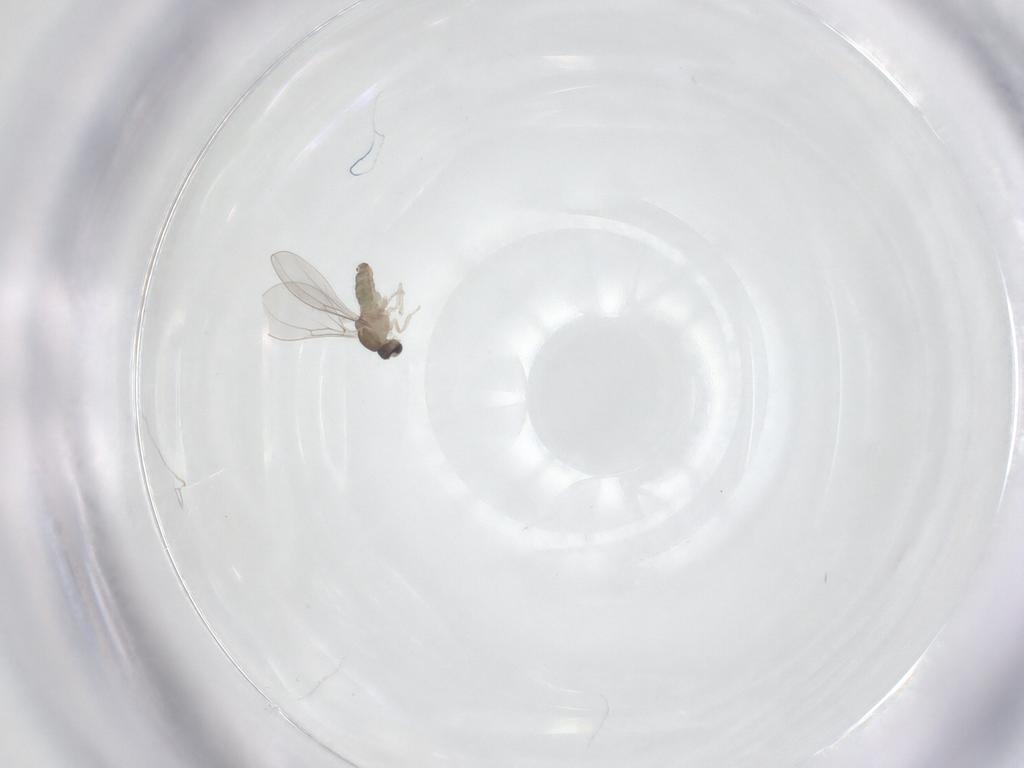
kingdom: Animalia
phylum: Arthropoda
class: Insecta
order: Diptera
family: Cecidomyiidae
